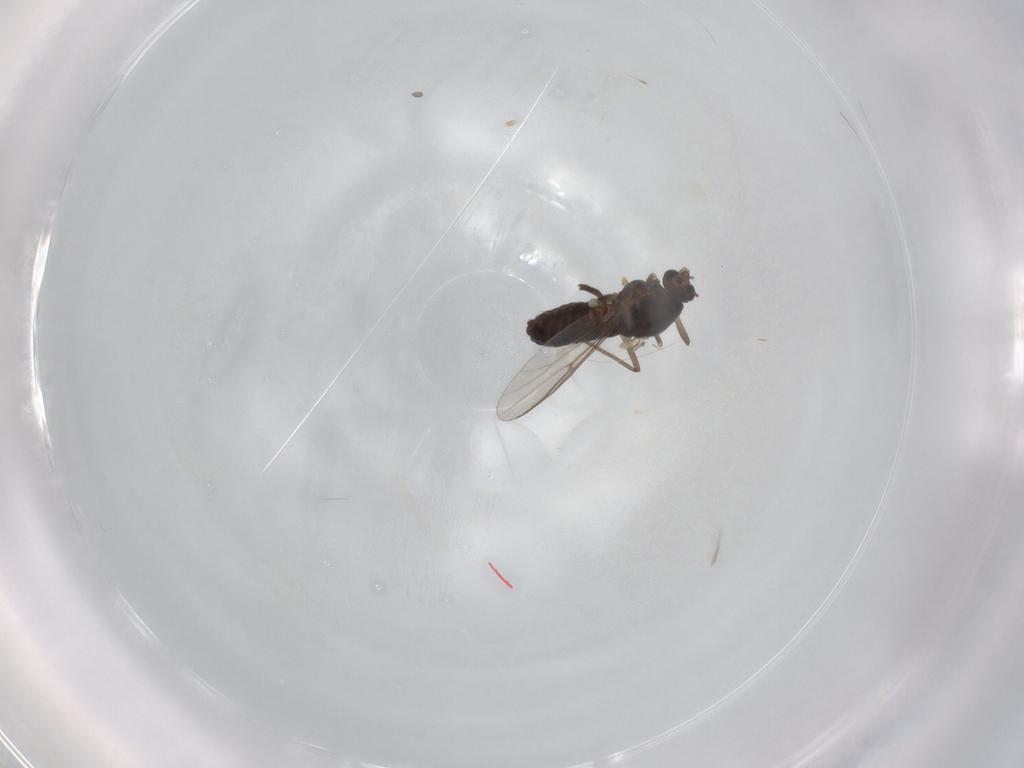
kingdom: Animalia
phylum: Arthropoda
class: Insecta
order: Diptera
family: Chironomidae
